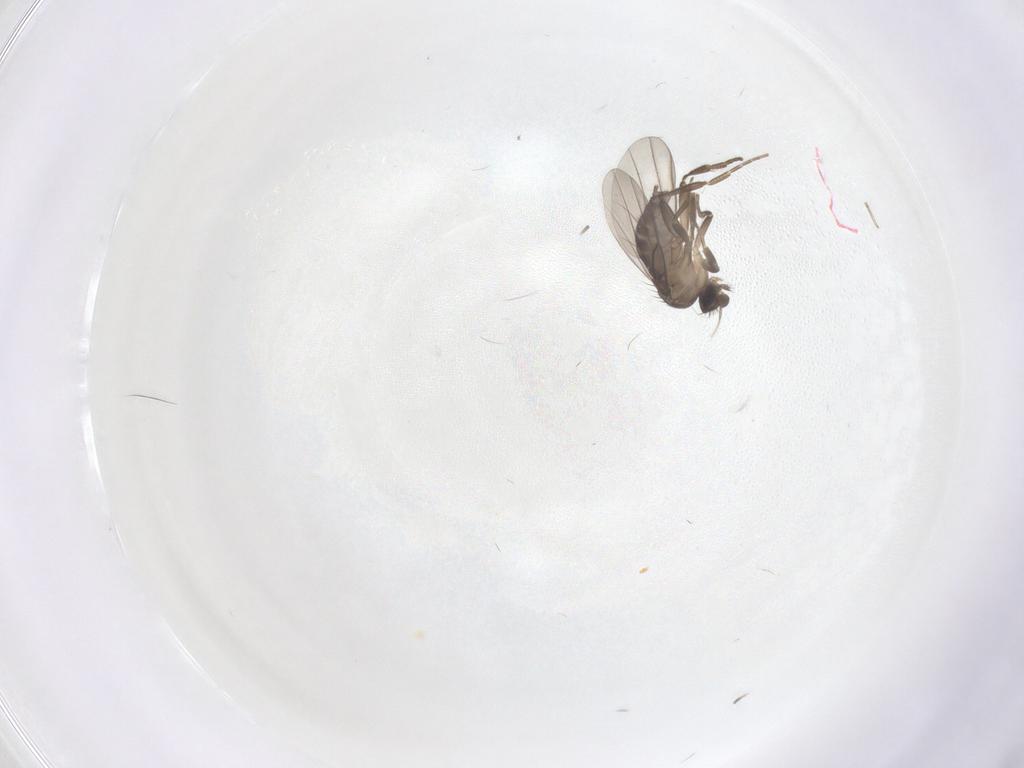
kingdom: Animalia
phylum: Arthropoda
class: Insecta
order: Diptera
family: Phoridae
